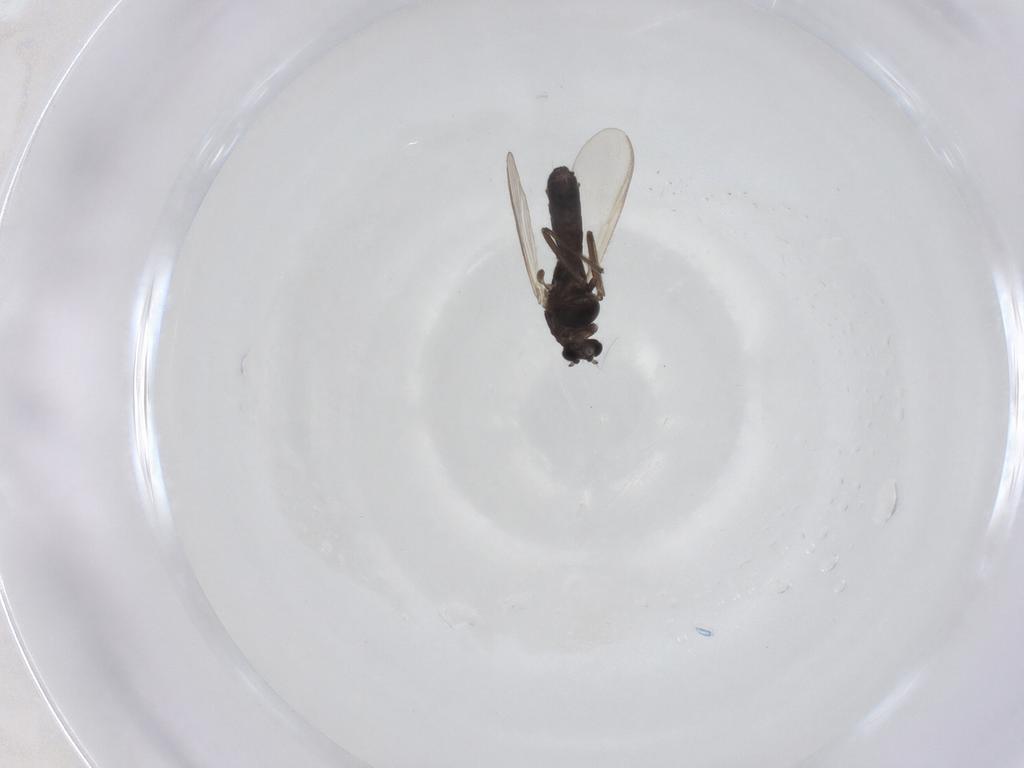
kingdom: Animalia
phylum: Arthropoda
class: Insecta
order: Diptera
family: Chironomidae
